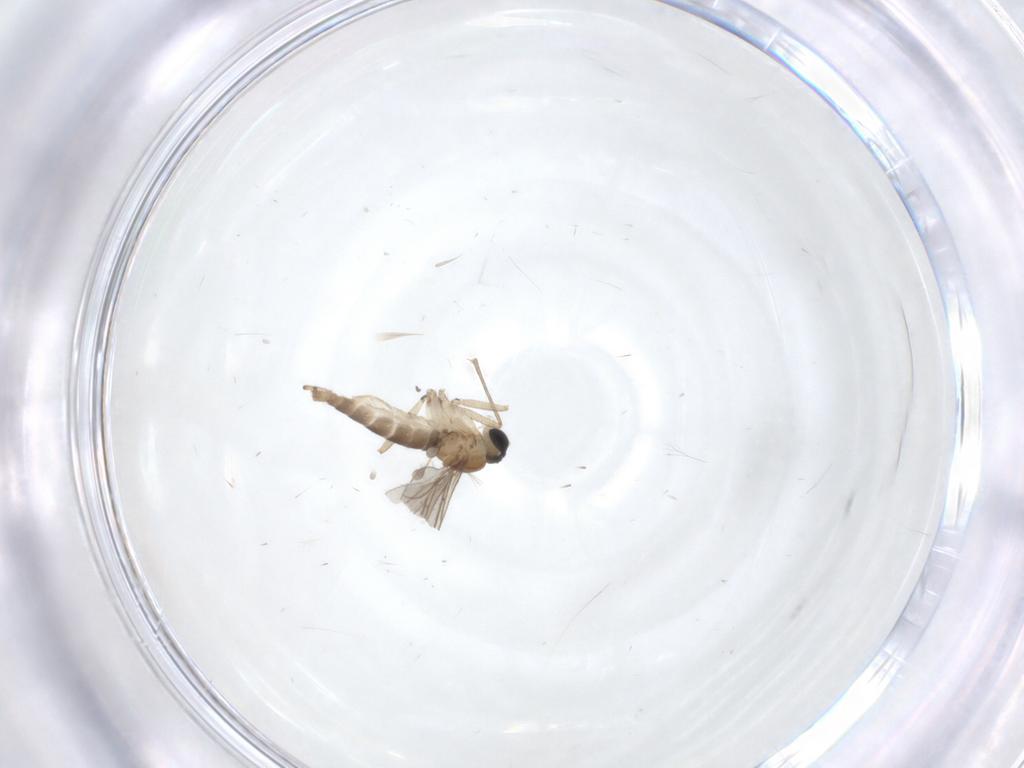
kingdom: Animalia
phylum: Arthropoda
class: Insecta
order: Diptera
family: Sciaridae
